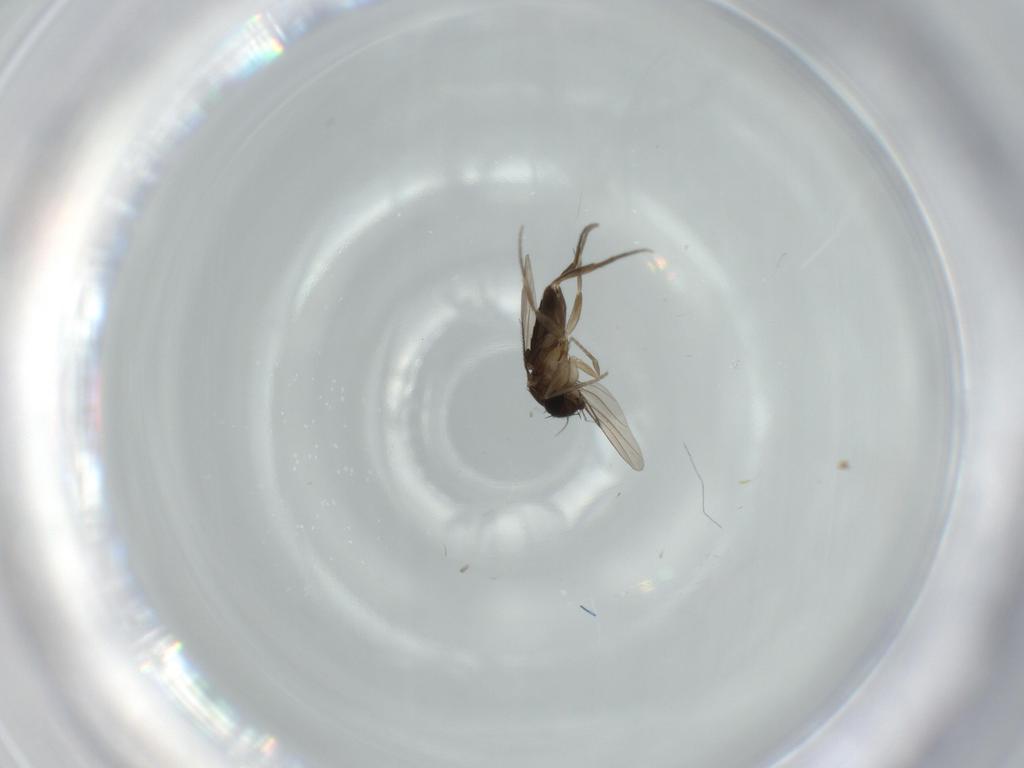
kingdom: Animalia
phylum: Arthropoda
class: Insecta
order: Diptera
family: Phoridae
